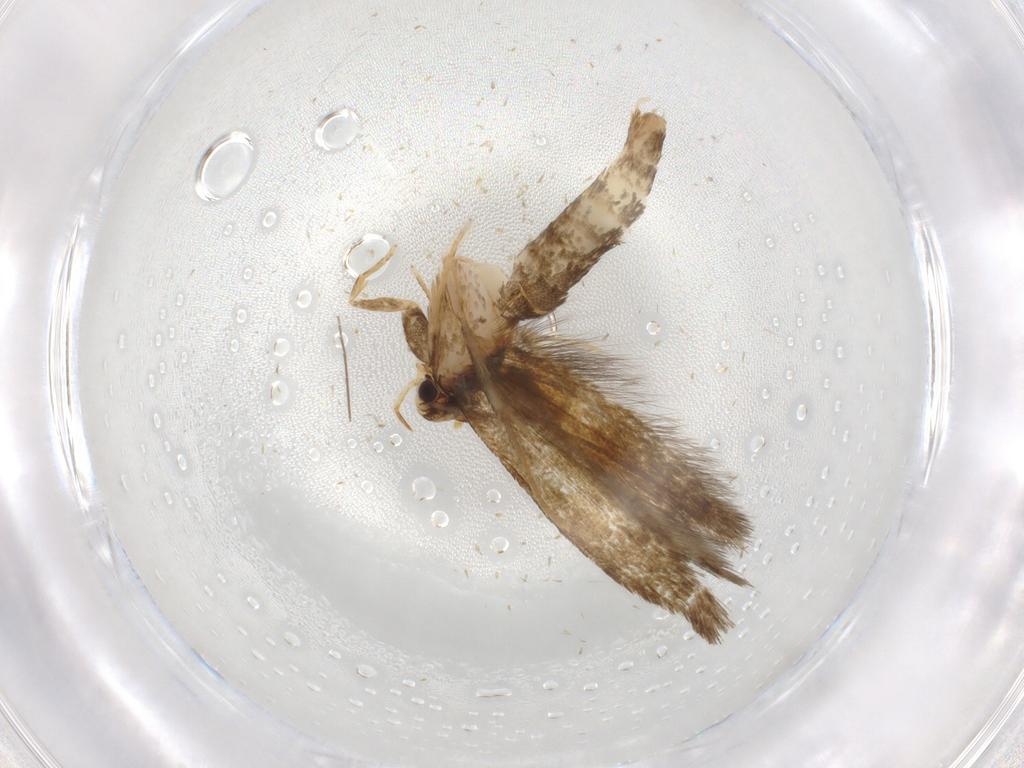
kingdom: Animalia
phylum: Arthropoda
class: Insecta
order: Lepidoptera
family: Tineidae
